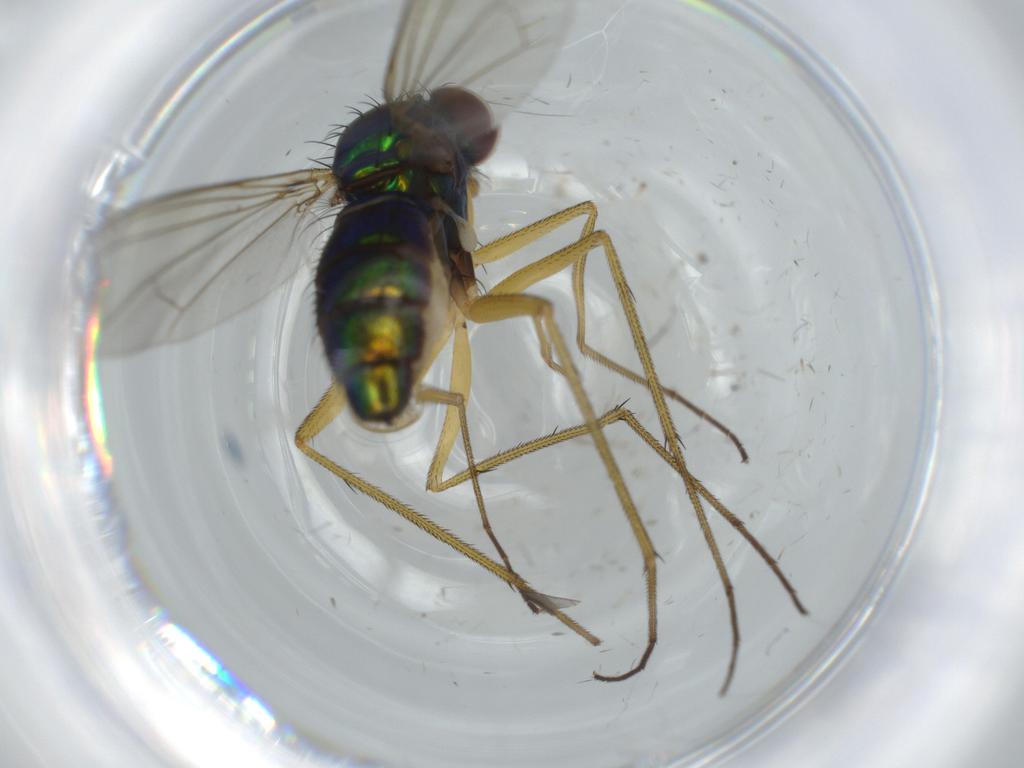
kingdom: Animalia
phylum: Arthropoda
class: Insecta
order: Diptera
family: Dolichopodidae
